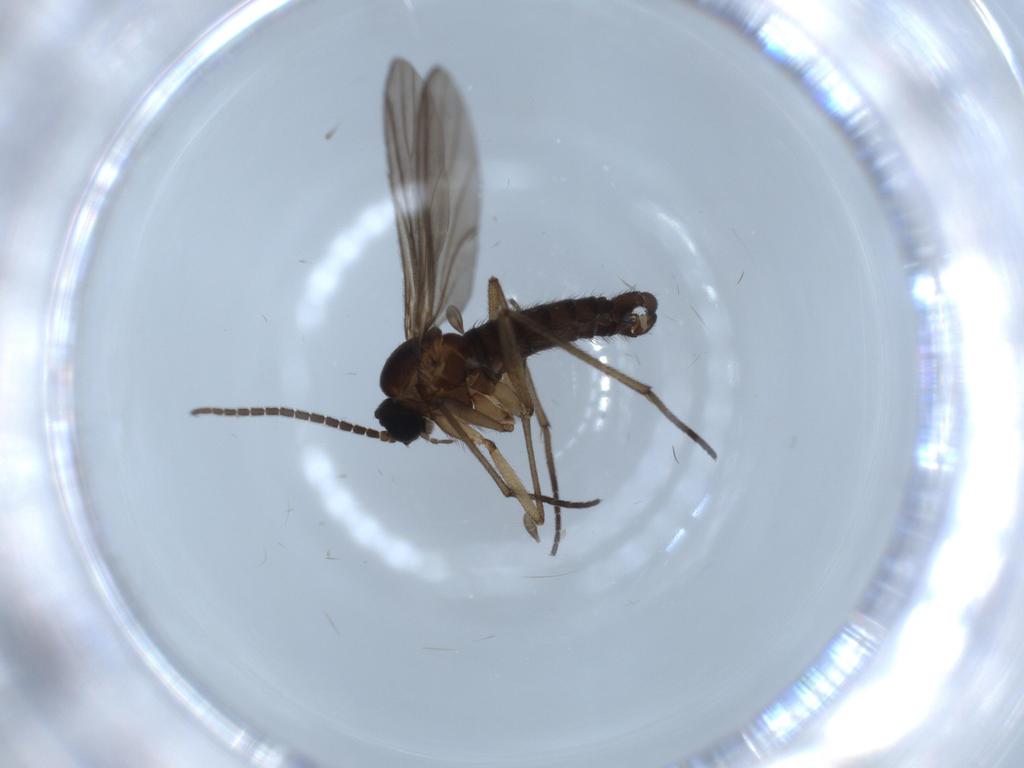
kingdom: Animalia
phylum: Arthropoda
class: Insecta
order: Diptera
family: Sciaridae
